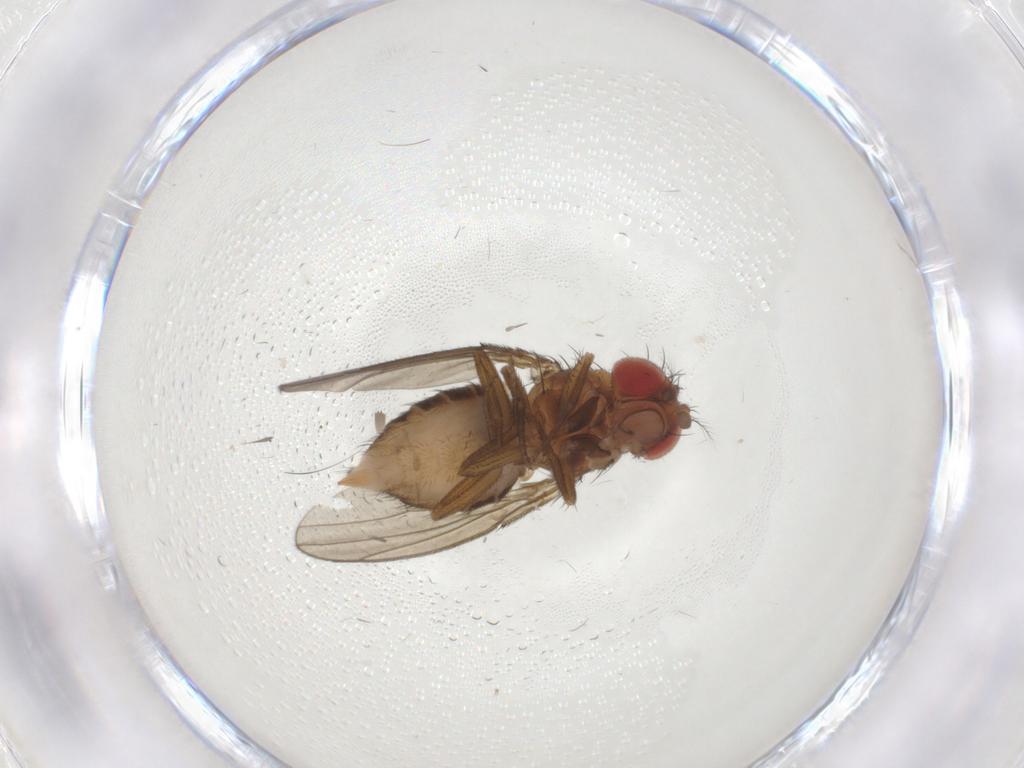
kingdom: Animalia
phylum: Arthropoda
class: Insecta
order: Diptera
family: Drosophilidae
